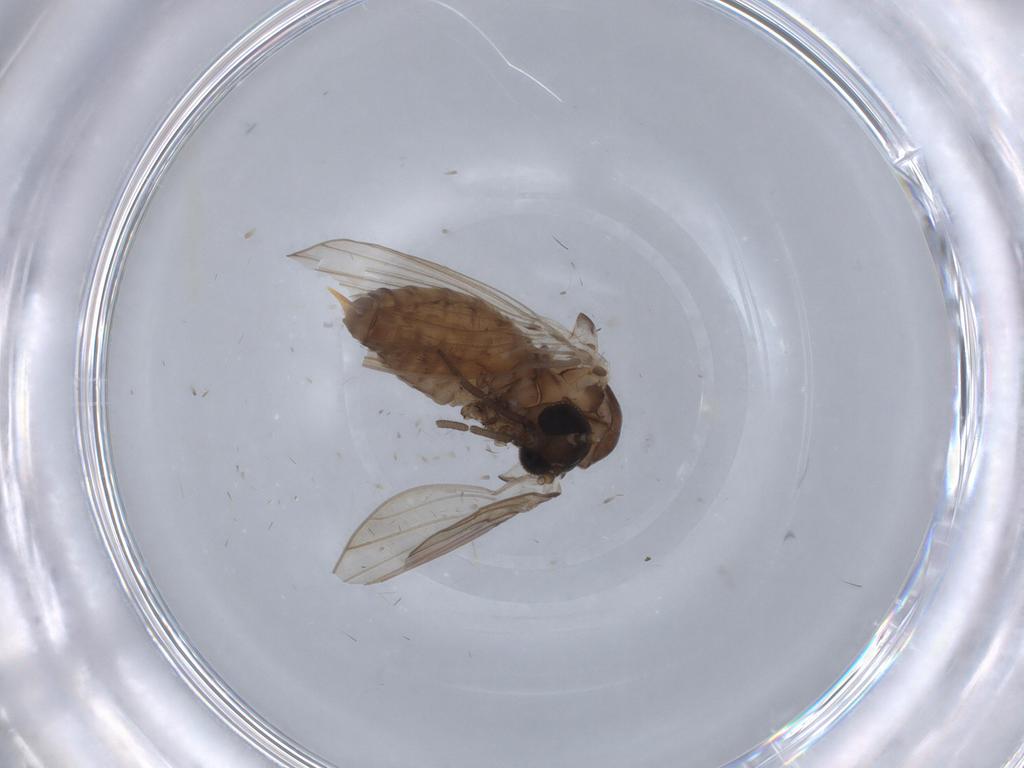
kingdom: Animalia
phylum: Arthropoda
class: Insecta
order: Diptera
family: Psychodidae
